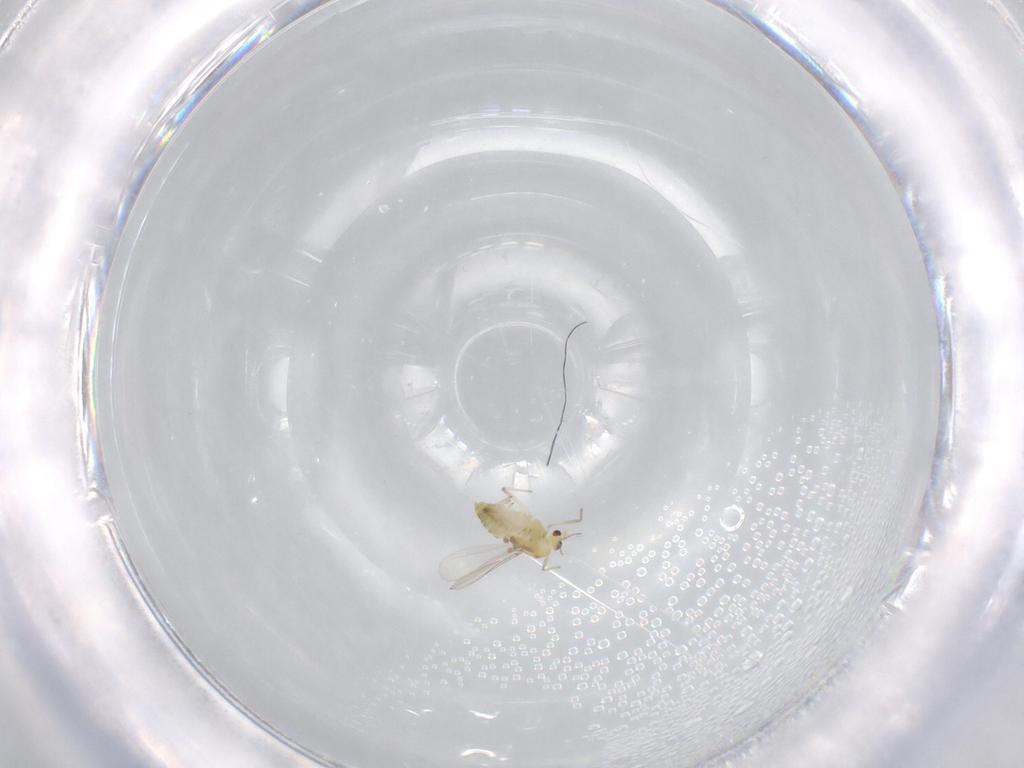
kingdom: Animalia
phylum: Arthropoda
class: Insecta
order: Diptera
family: Chironomidae
